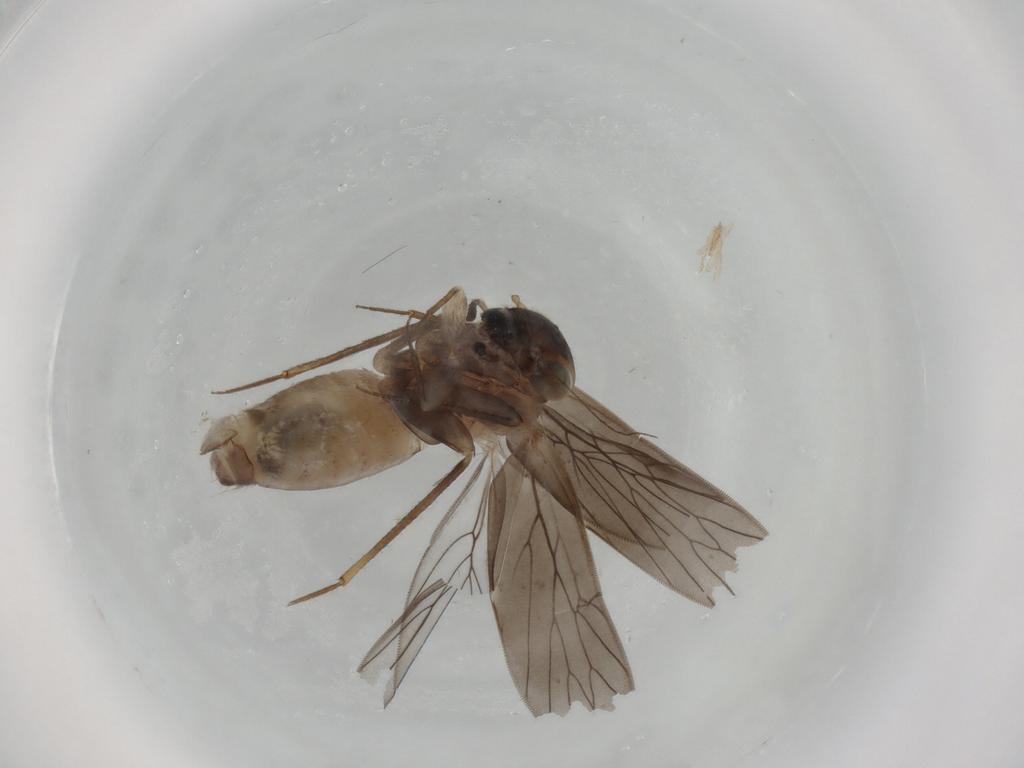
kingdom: Animalia
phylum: Arthropoda
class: Insecta
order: Psocodea
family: Lepidopsocidae
